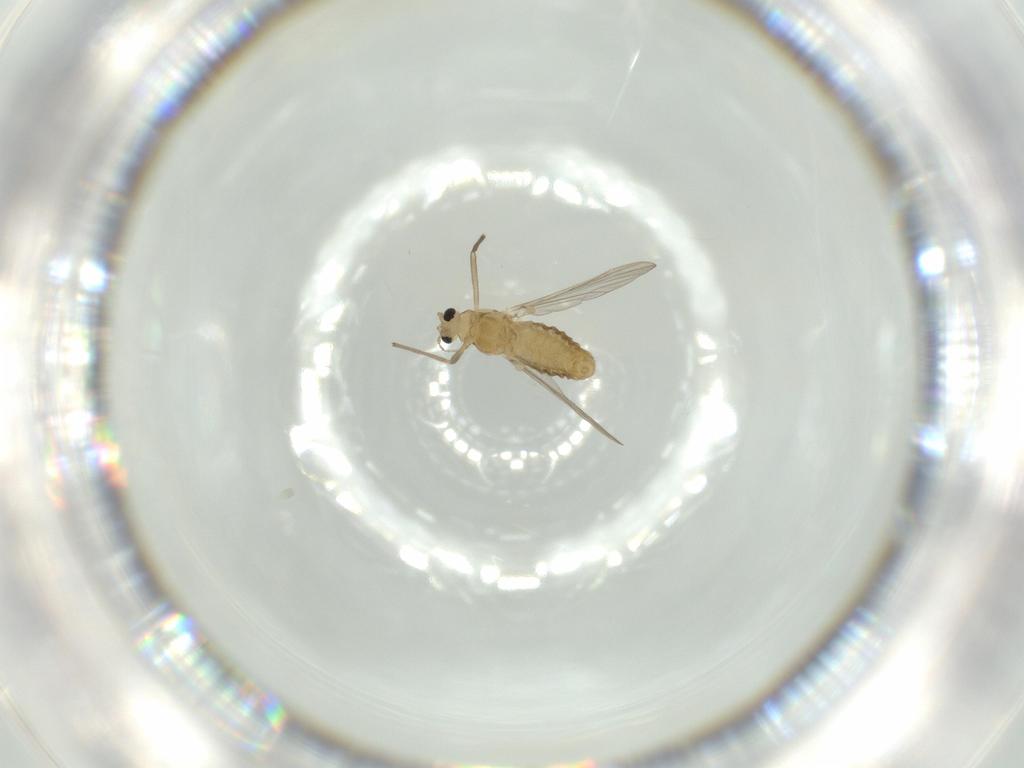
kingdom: Animalia
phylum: Arthropoda
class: Insecta
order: Diptera
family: Chironomidae
